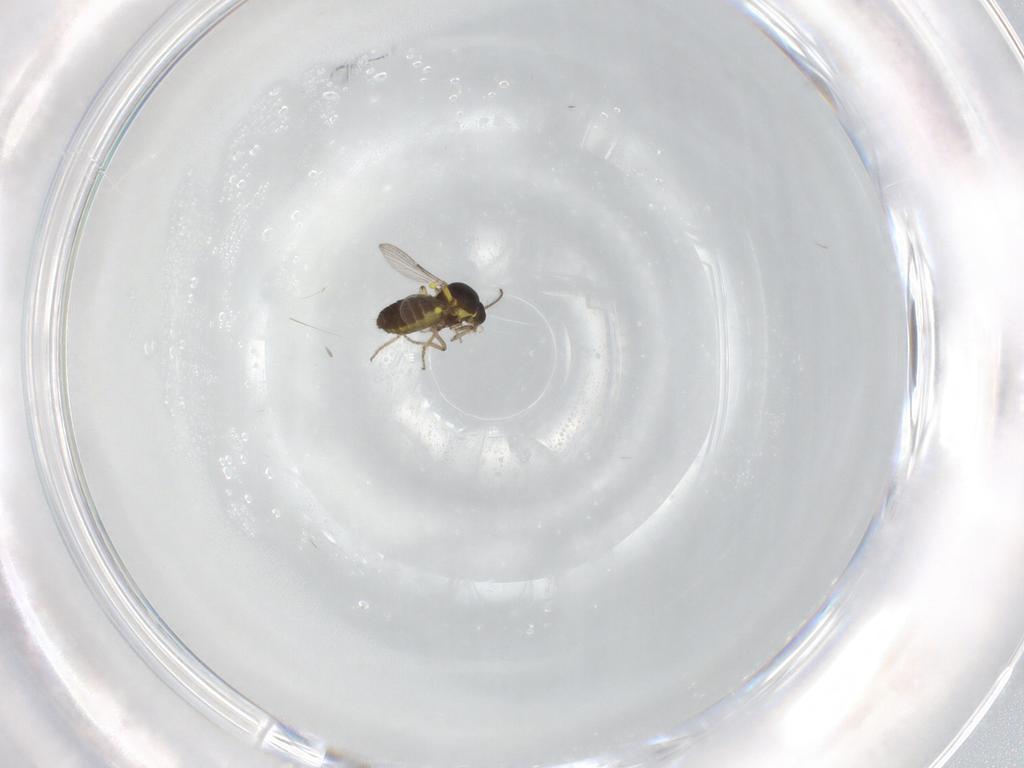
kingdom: Animalia
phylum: Arthropoda
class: Insecta
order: Diptera
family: Ceratopogonidae
